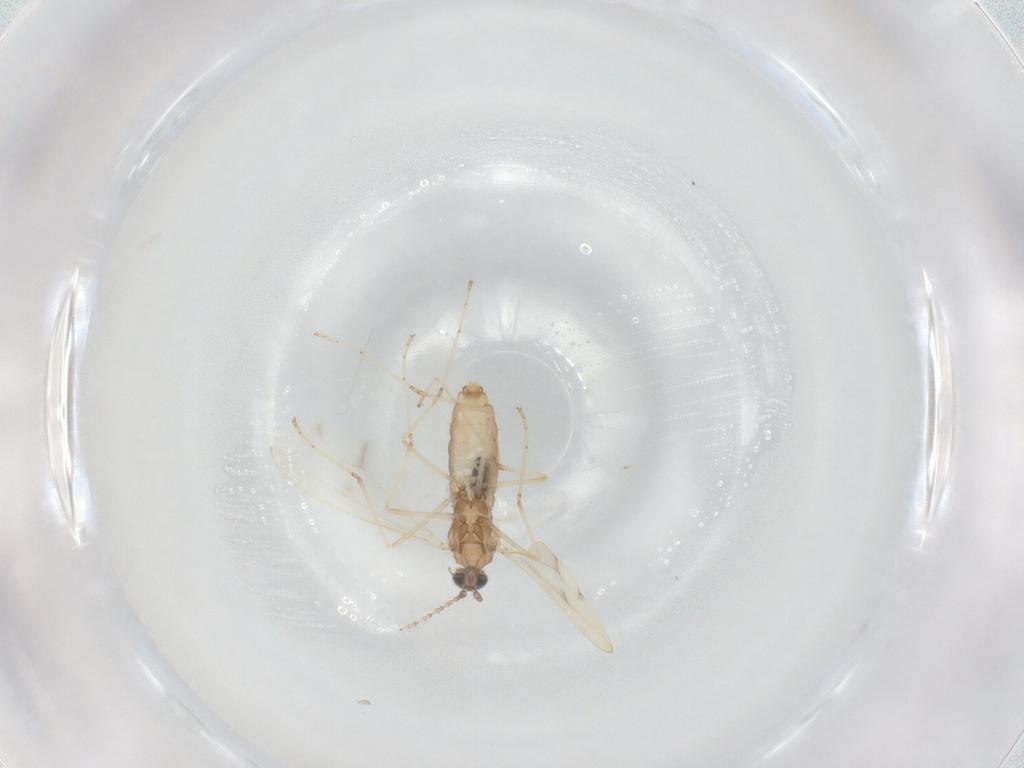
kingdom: Animalia
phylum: Arthropoda
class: Insecta
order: Diptera
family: Cecidomyiidae
